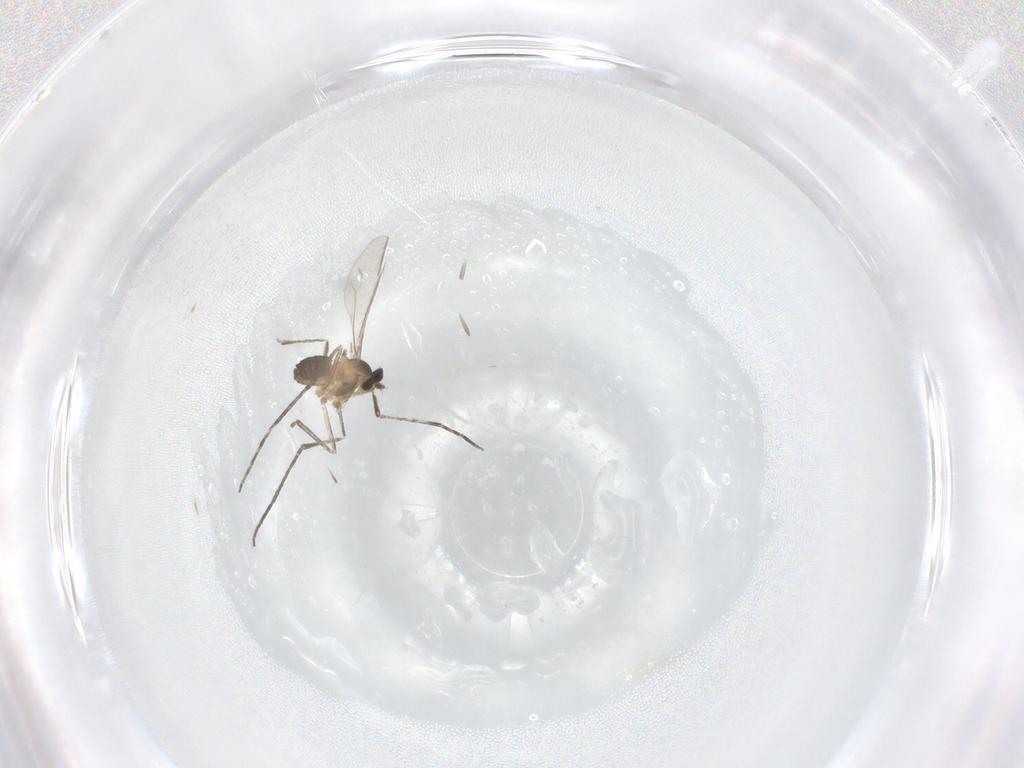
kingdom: Animalia
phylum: Arthropoda
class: Insecta
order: Diptera
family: Cecidomyiidae
